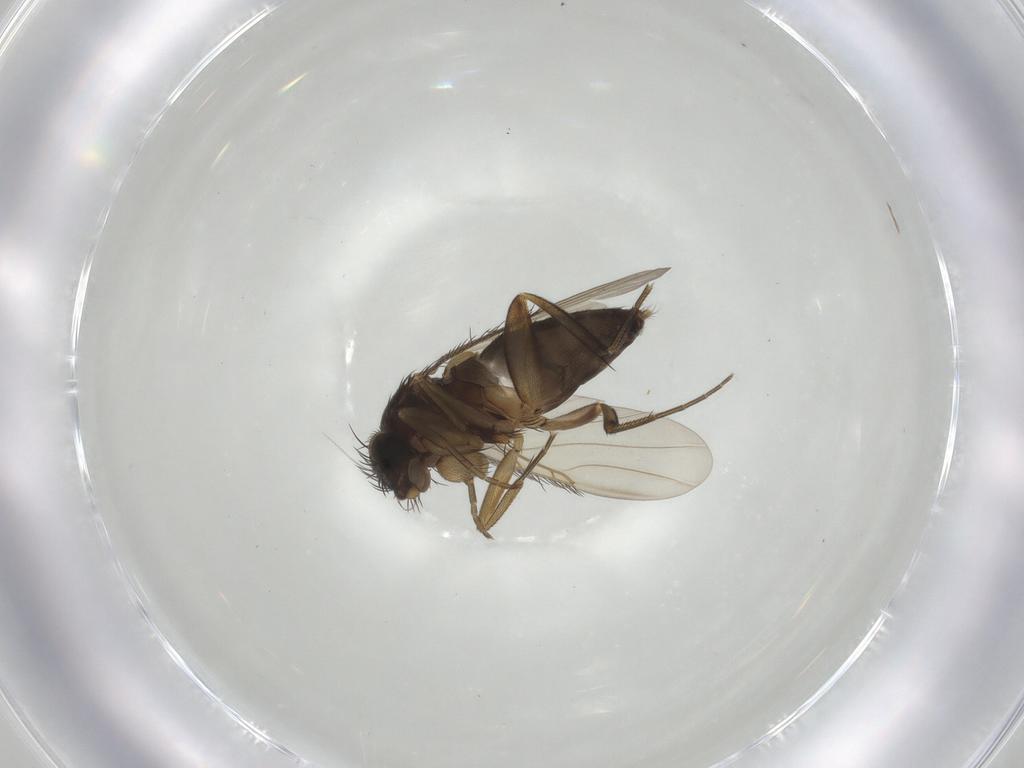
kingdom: Animalia
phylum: Arthropoda
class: Insecta
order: Diptera
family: Phoridae
